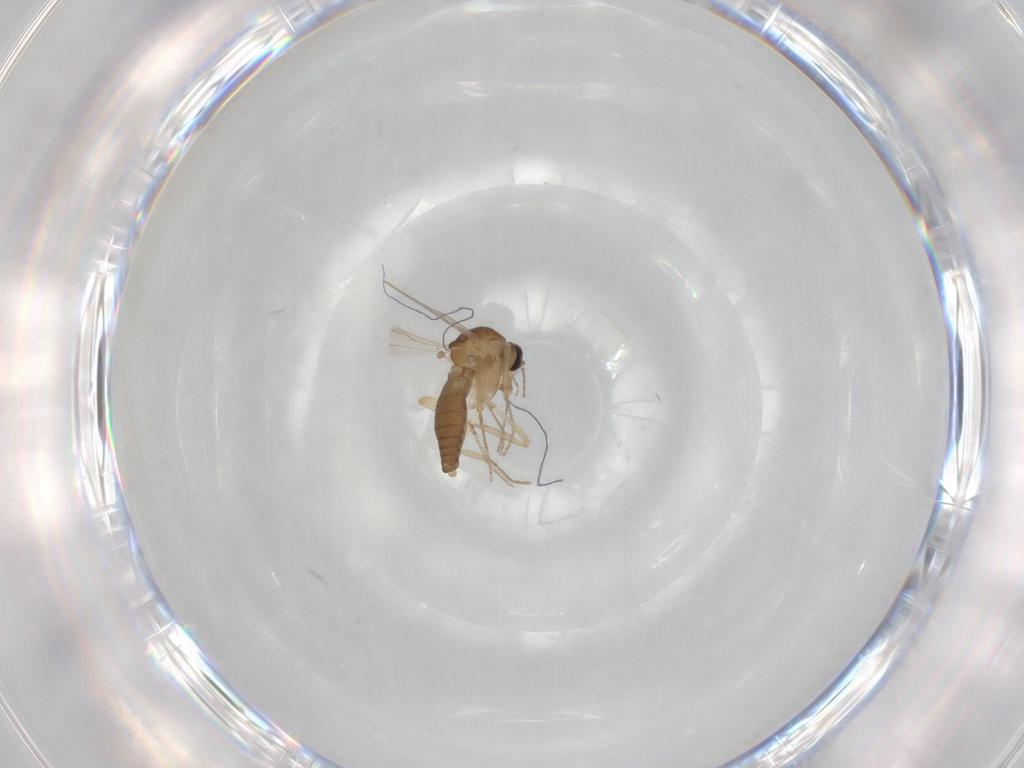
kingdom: Animalia
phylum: Arthropoda
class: Insecta
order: Diptera
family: Ceratopogonidae
